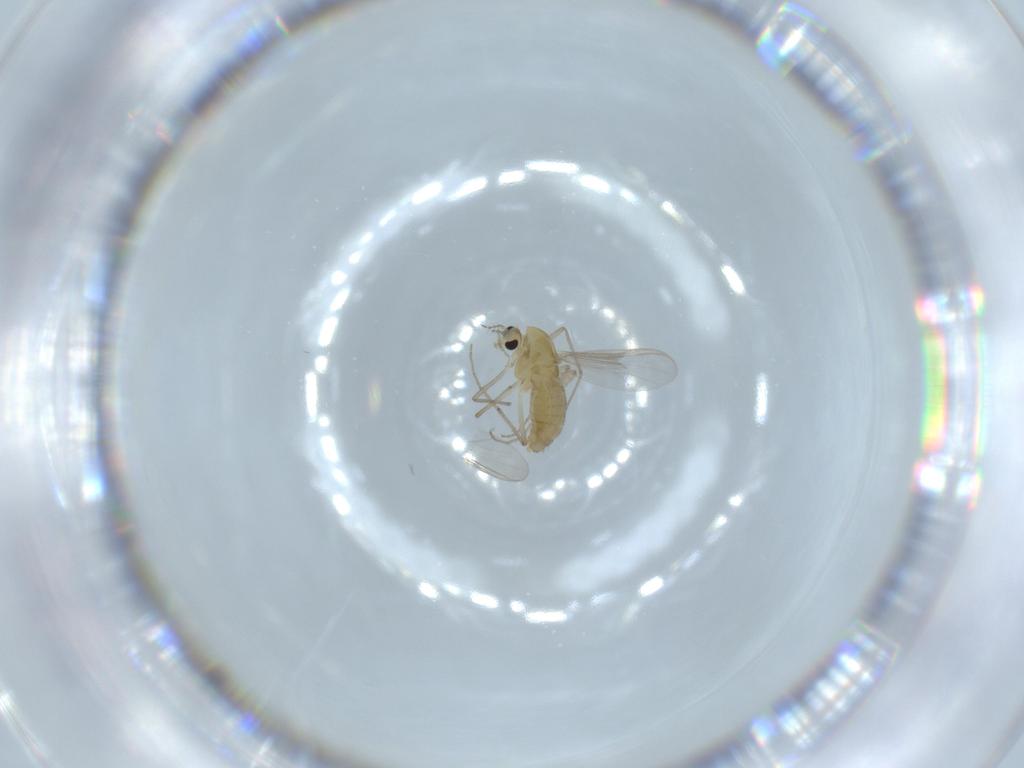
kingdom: Animalia
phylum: Arthropoda
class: Insecta
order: Diptera
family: Chironomidae
